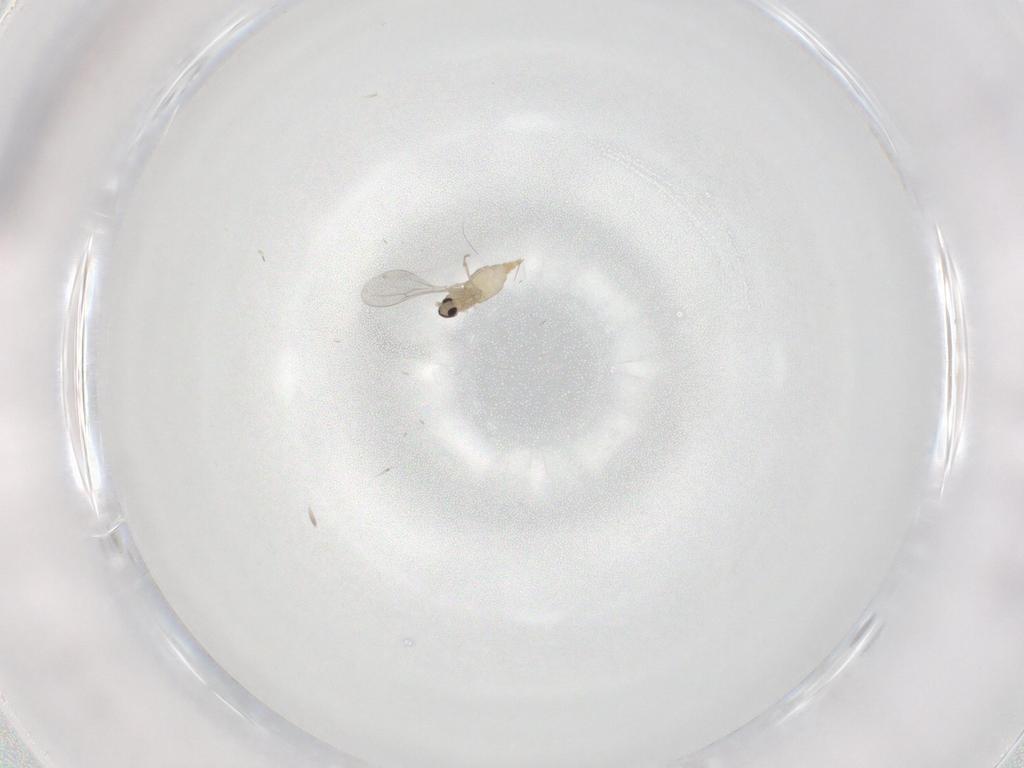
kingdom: Animalia
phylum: Arthropoda
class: Insecta
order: Diptera
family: Cecidomyiidae
